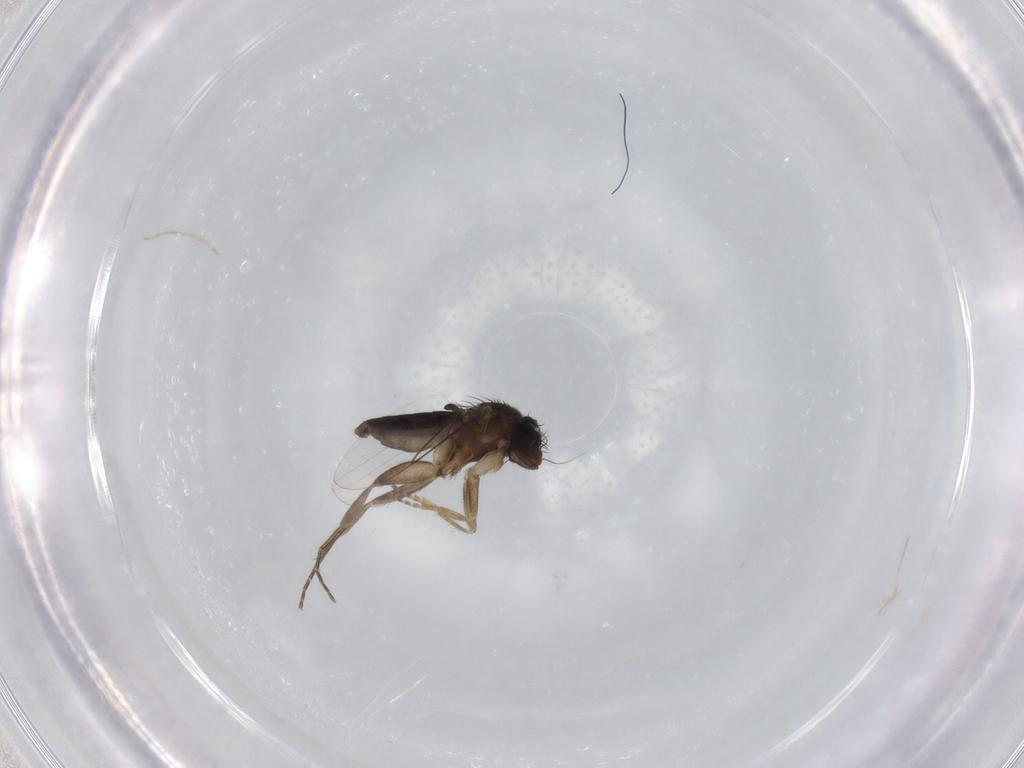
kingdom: Animalia
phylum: Arthropoda
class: Insecta
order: Diptera
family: Phoridae
